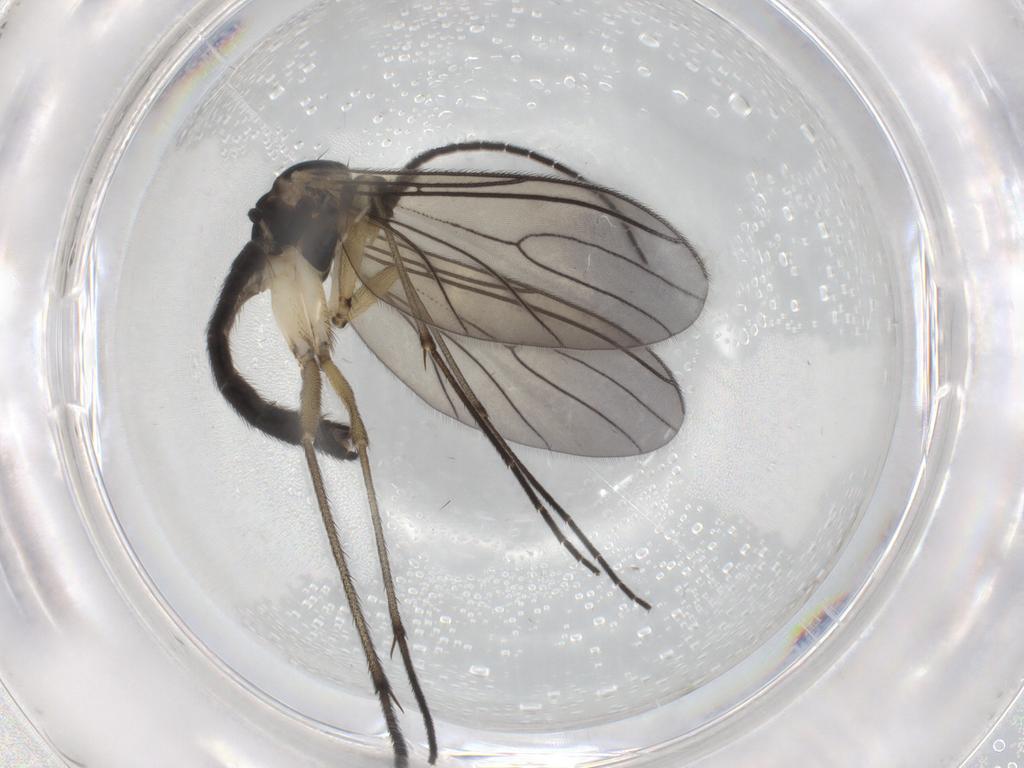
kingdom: Animalia
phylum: Arthropoda
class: Insecta
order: Diptera
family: Sciaridae
